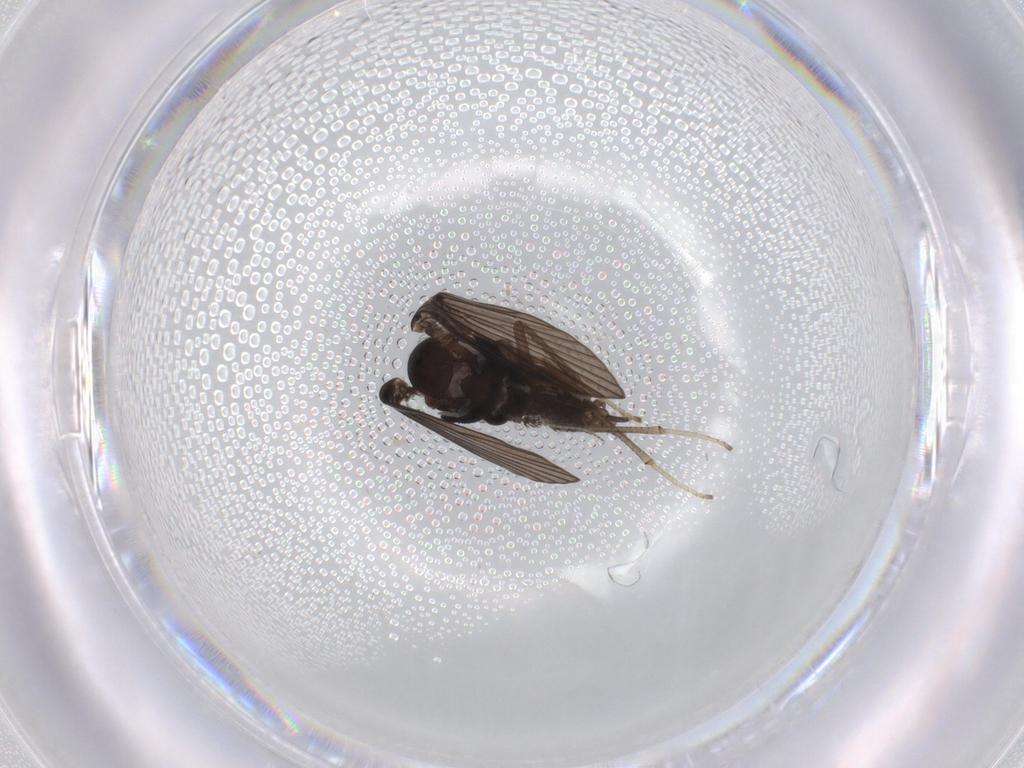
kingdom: Animalia
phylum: Arthropoda
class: Insecta
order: Diptera
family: Psychodidae
